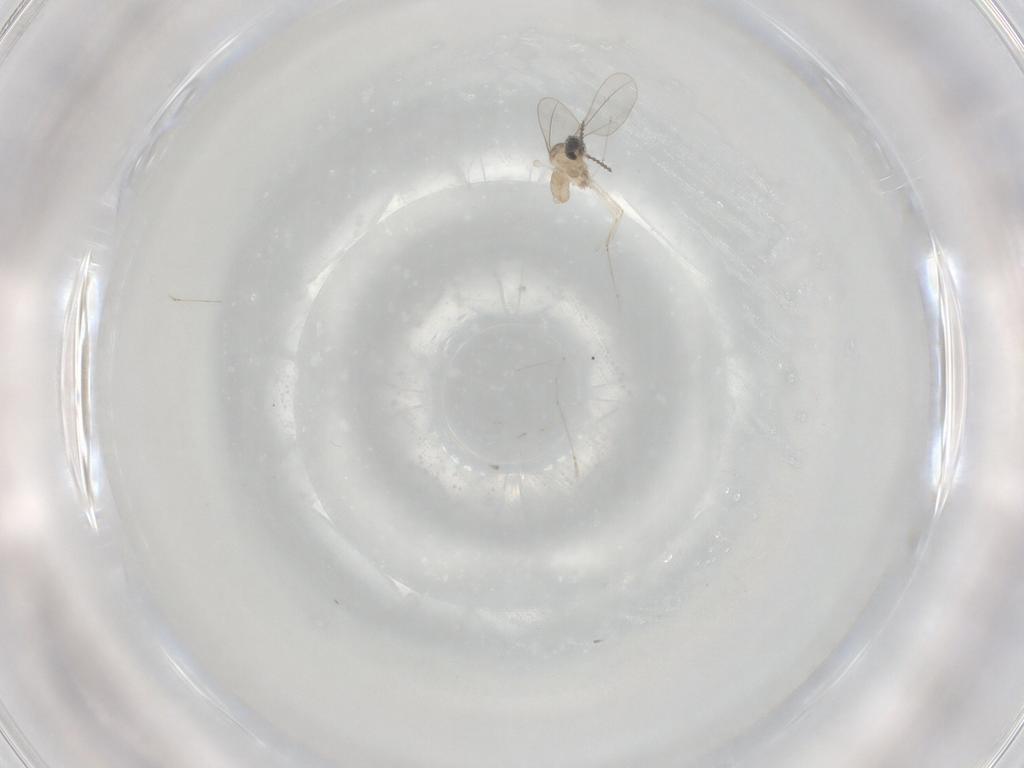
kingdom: Animalia
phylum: Arthropoda
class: Insecta
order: Diptera
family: Cecidomyiidae
